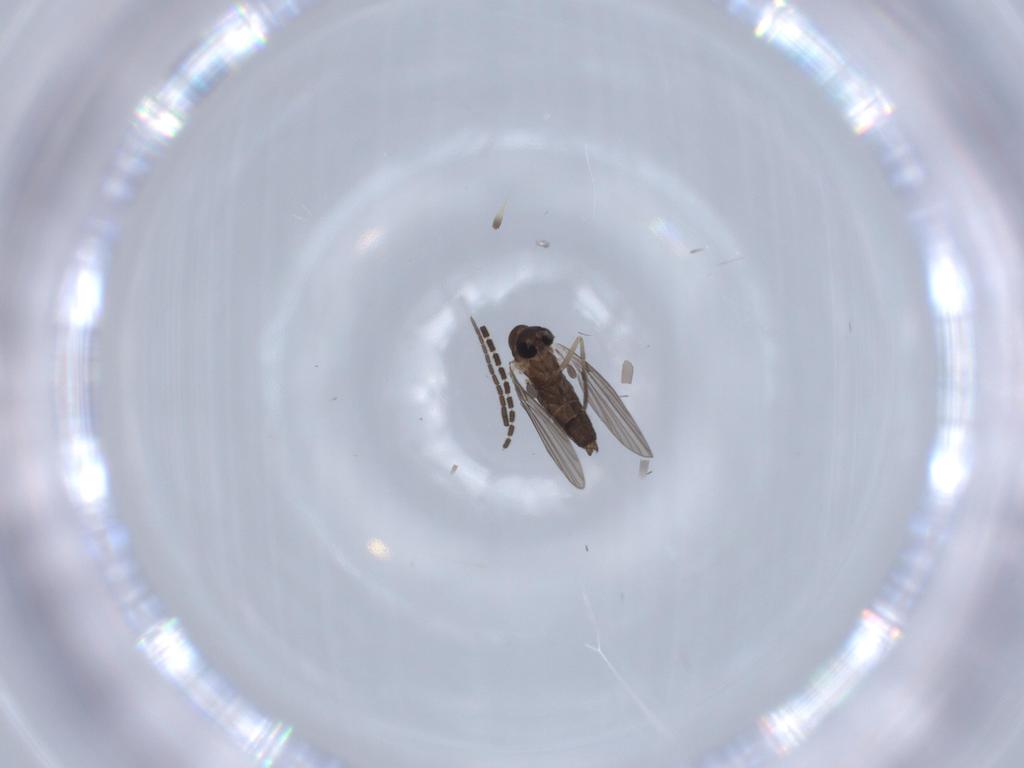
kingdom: Animalia
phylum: Arthropoda
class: Insecta
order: Diptera
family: Sciaridae
